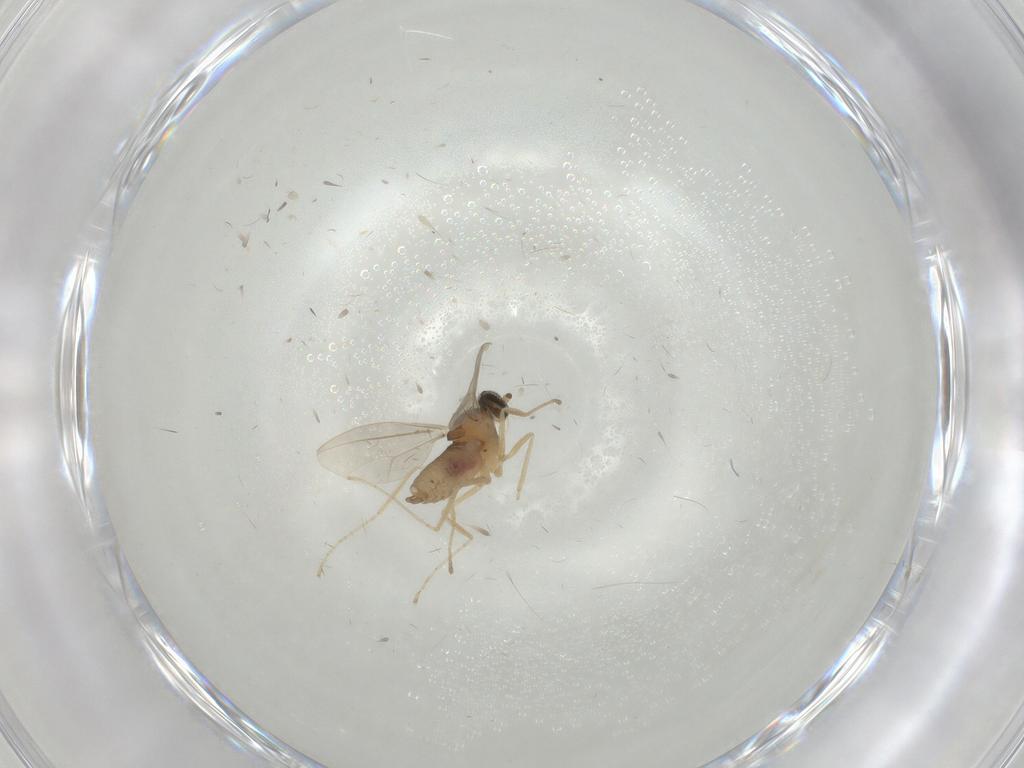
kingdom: Animalia
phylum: Arthropoda
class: Insecta
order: Diptera
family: Cecidomyiidae
